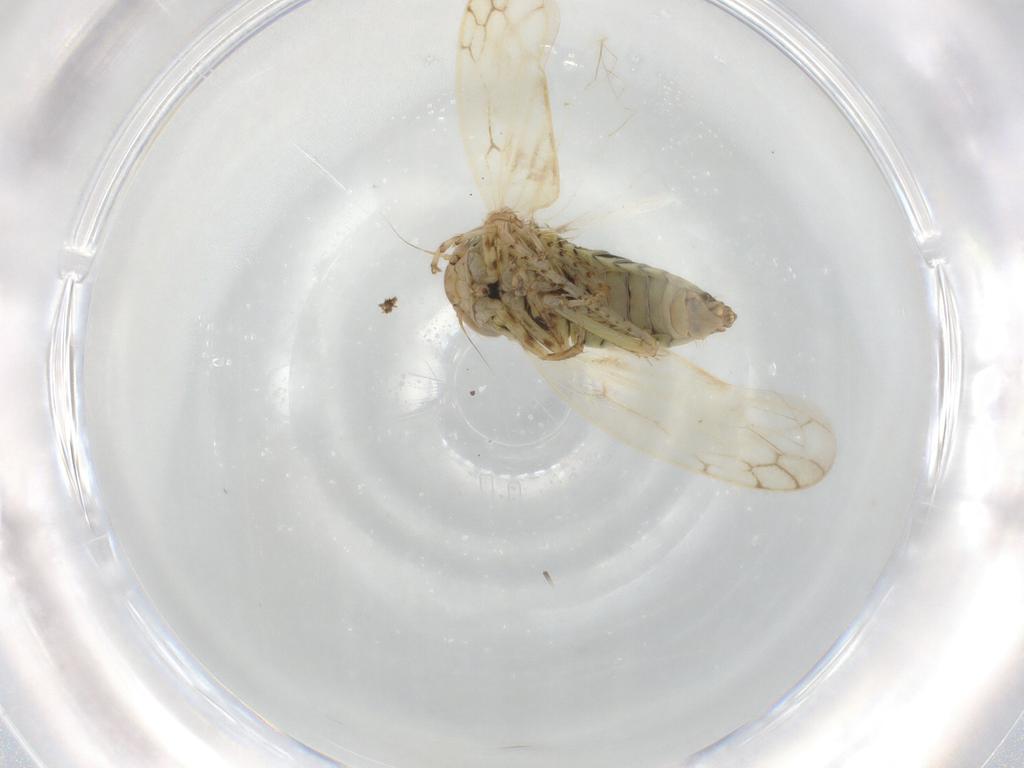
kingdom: Animalia
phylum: Arthropoda
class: Insecta
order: Hemiptera
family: Cicadellidae
